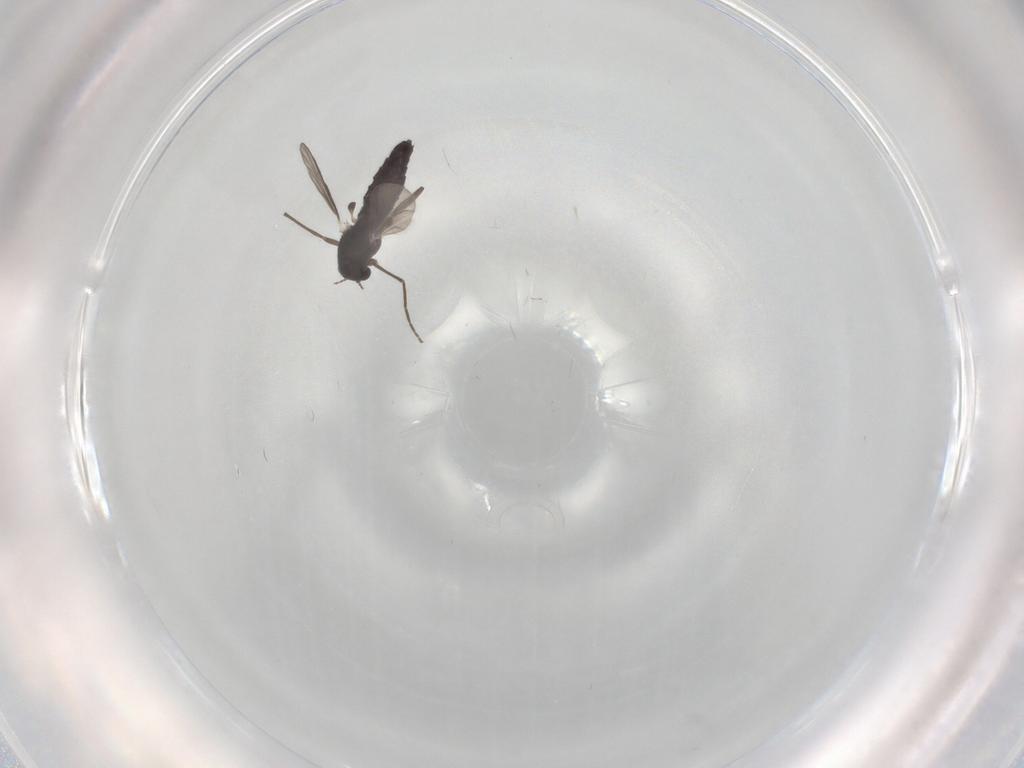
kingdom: Animalia
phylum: Arthropoda
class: Insecta
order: Diptera
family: Chironomidae
